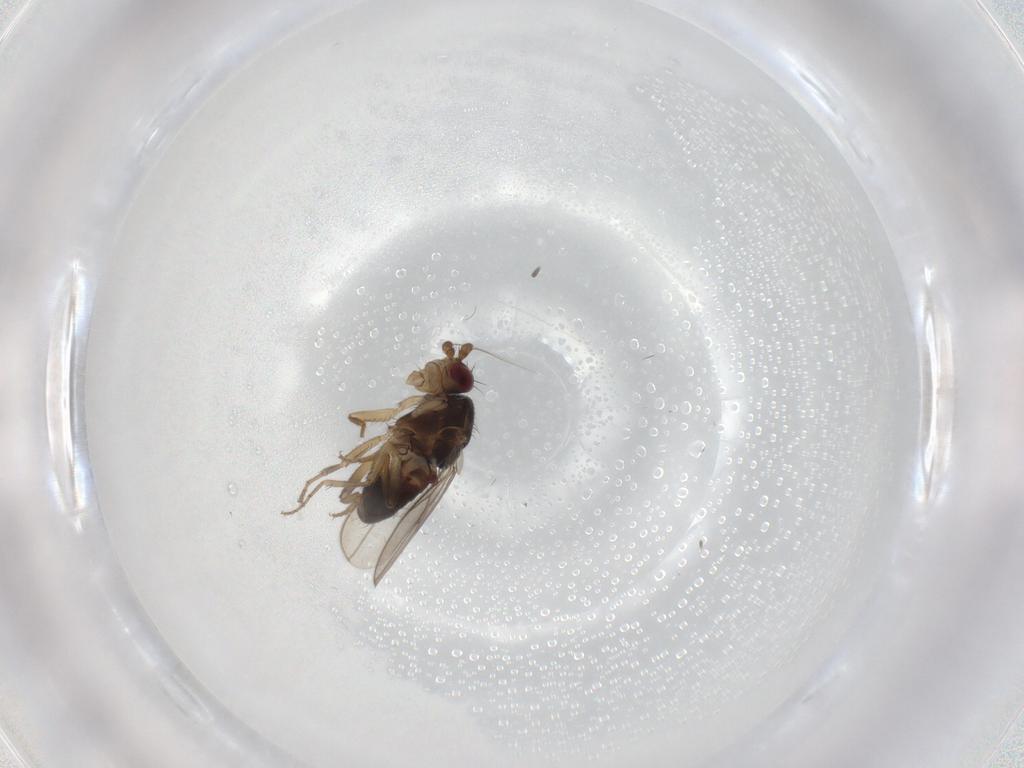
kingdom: Animalia
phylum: Arthropoda
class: Insecta
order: Diptera
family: Sphaeroceridae
